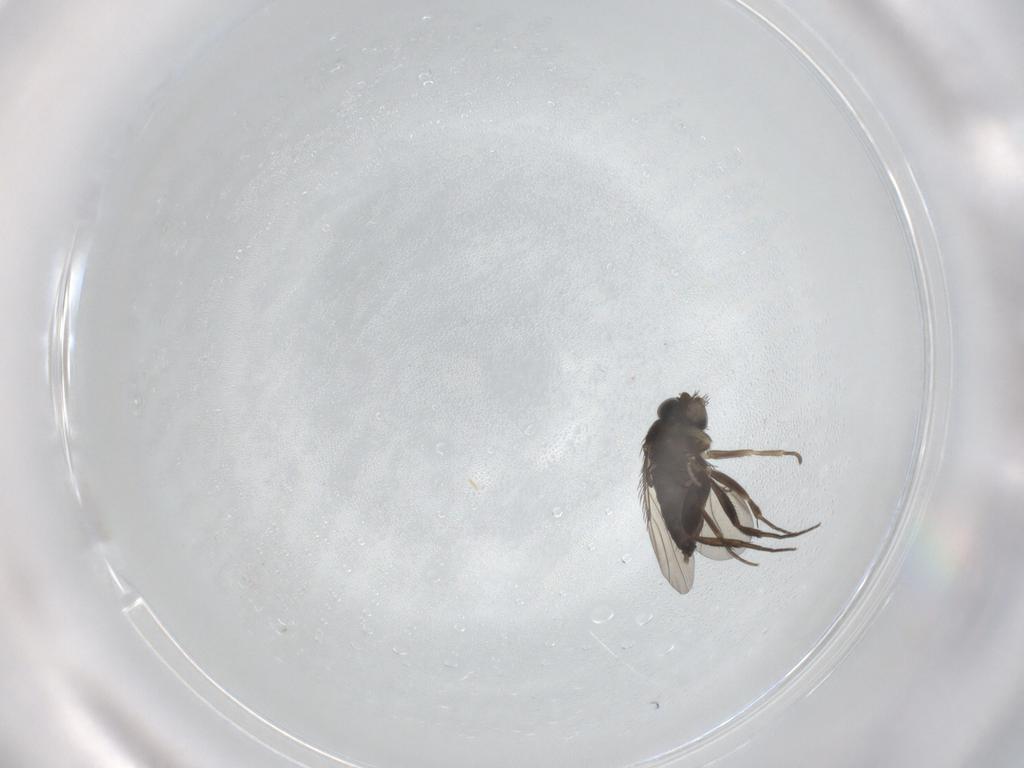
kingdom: Animalia
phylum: Arthropoda
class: Insecta
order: Diptera
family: Phoridae
